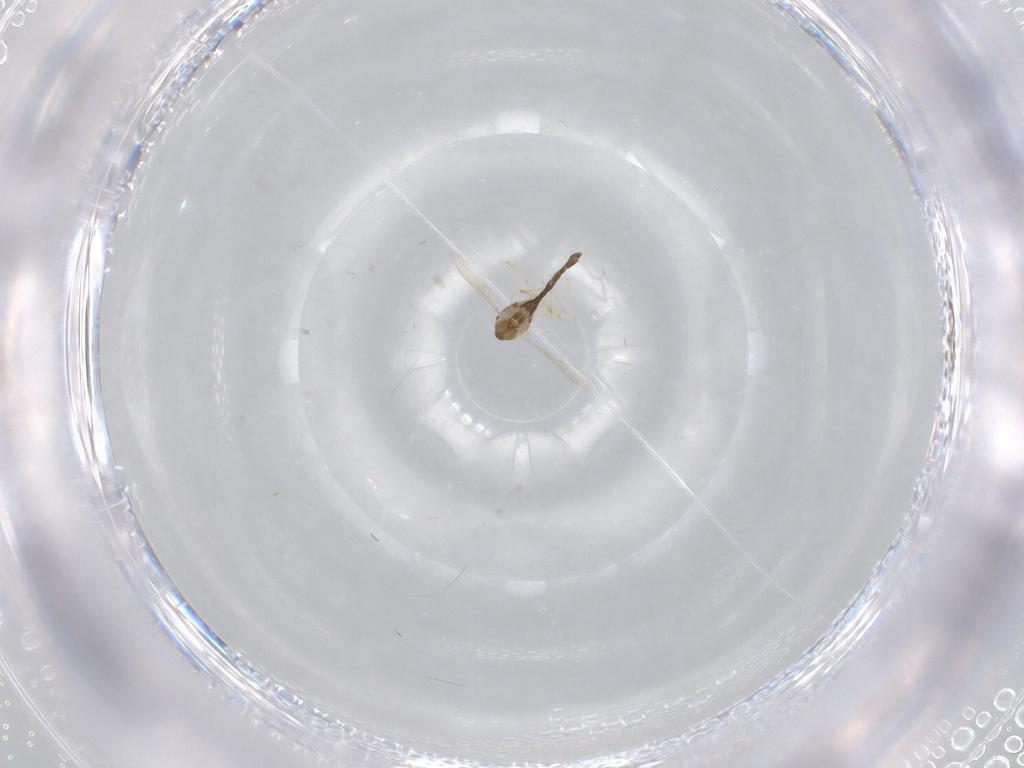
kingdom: Animalia
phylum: Arthropoda
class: Insecta
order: Diptera
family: Chironomidae
